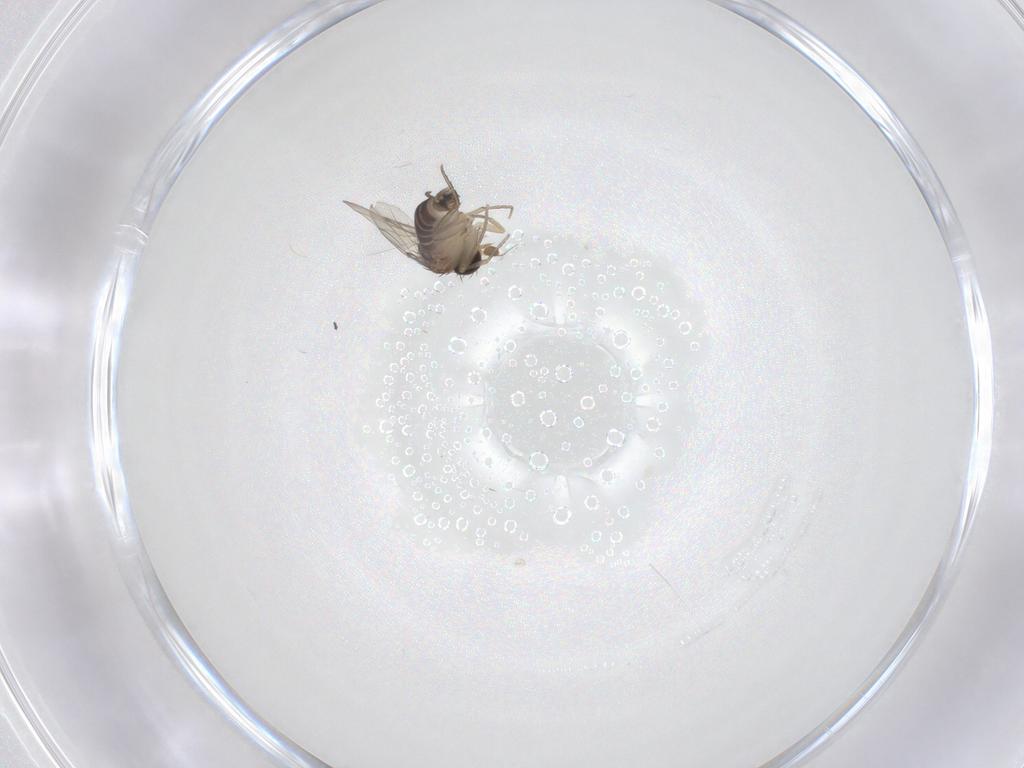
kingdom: Animalia
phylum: Arthropoda
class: Insecta
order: Diptera
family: Phoridae
